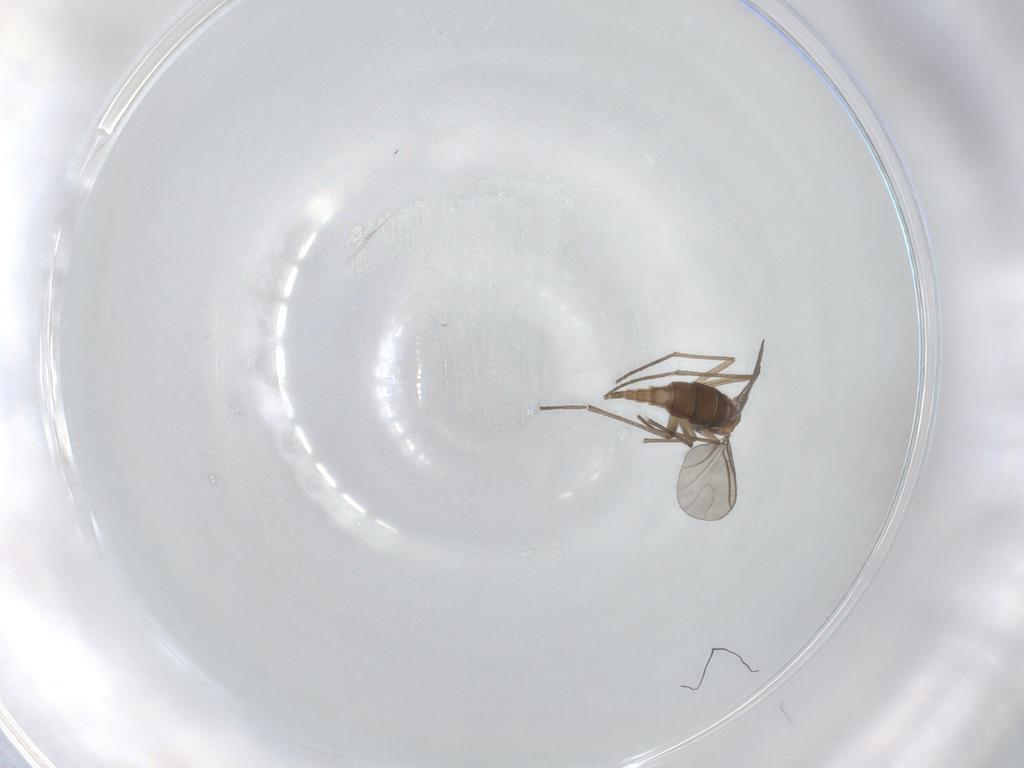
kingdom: Animalia
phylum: Arthropoda
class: Insecta
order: Diptera
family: Sciaridae
